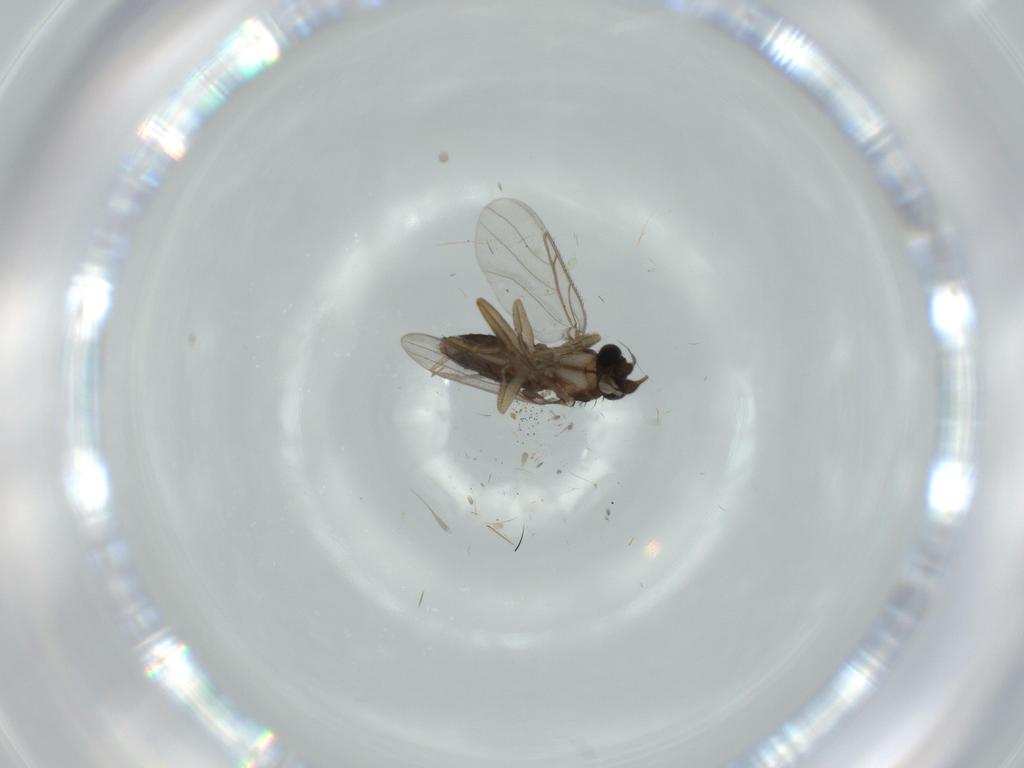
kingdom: Animalia
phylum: Arthropoda
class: Insecta
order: Diptera
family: Phoridae
